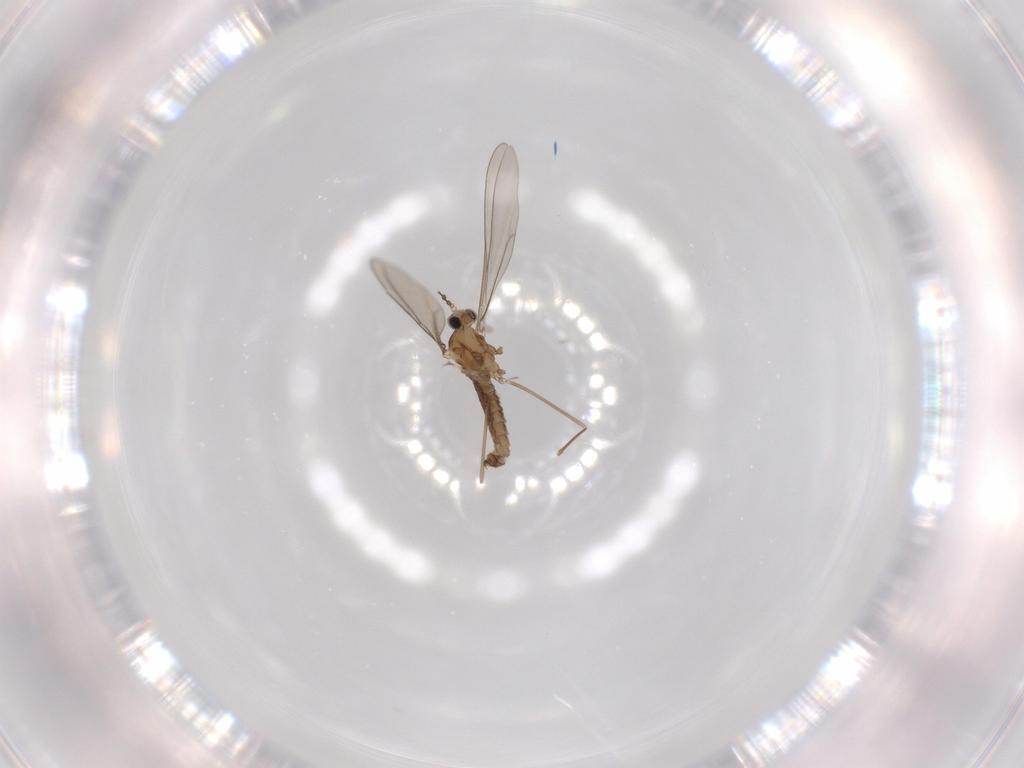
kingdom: Animalia
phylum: Arthropoda
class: Insecta
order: Diptera
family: Cecidomyiidae
